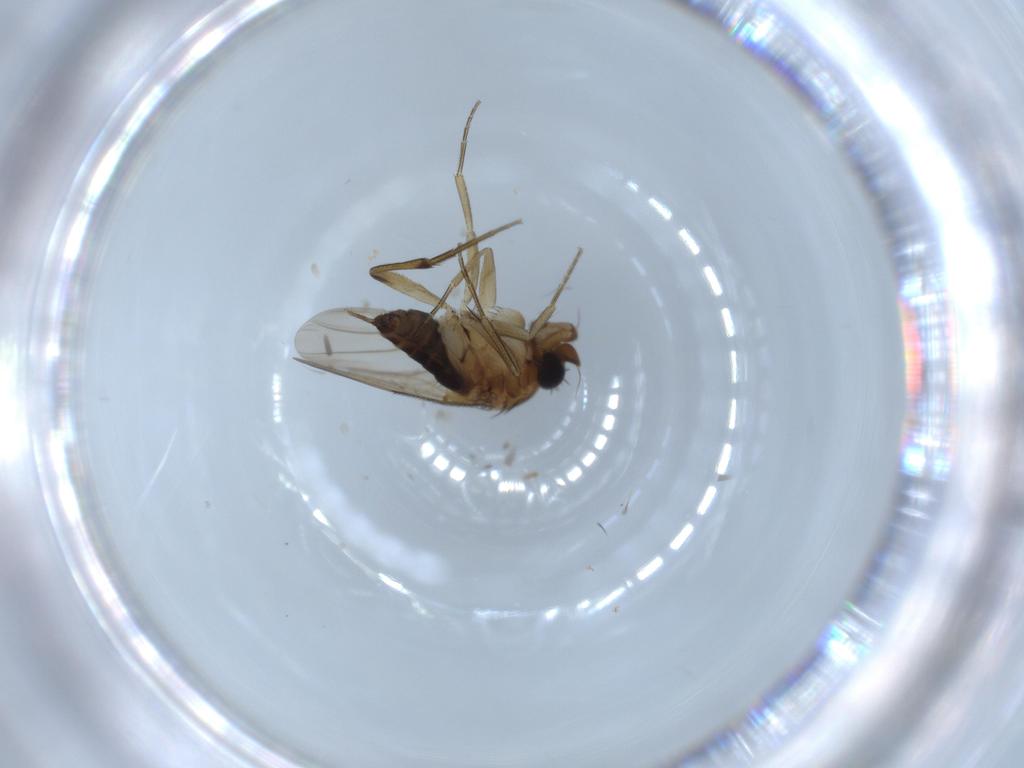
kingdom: Animalia
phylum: Arthropoda
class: Insecta
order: Diptera
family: Phoridae
